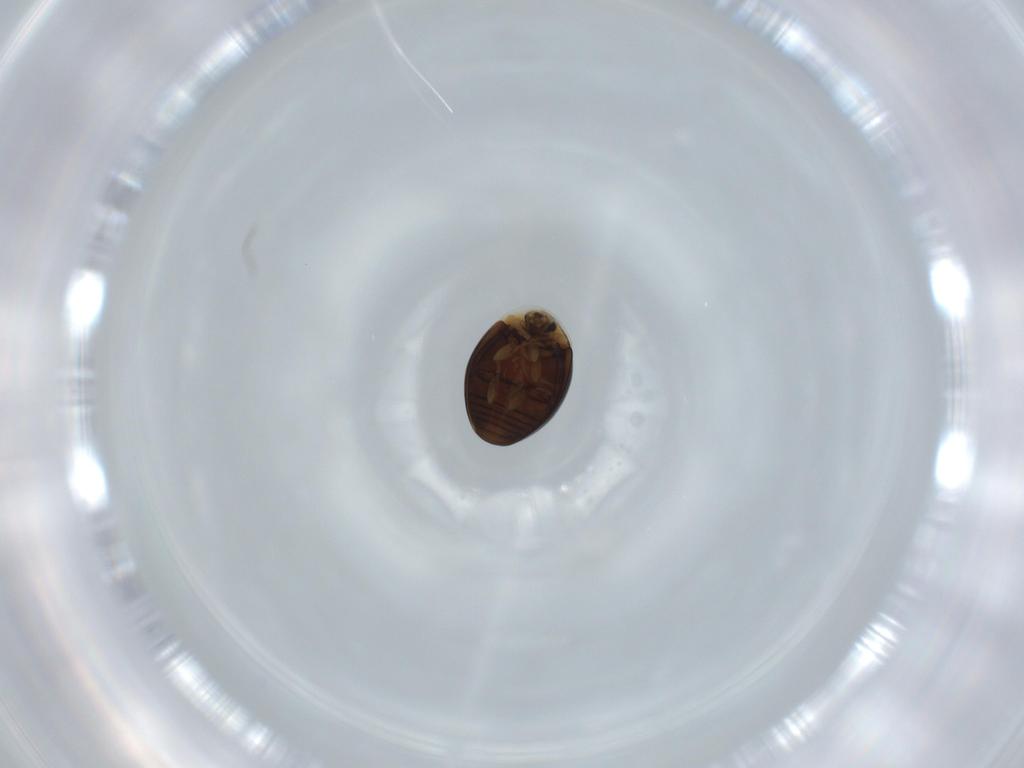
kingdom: Animalia
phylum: Arthropoda
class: Insecta
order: Coleoptera
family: Corylophidae
